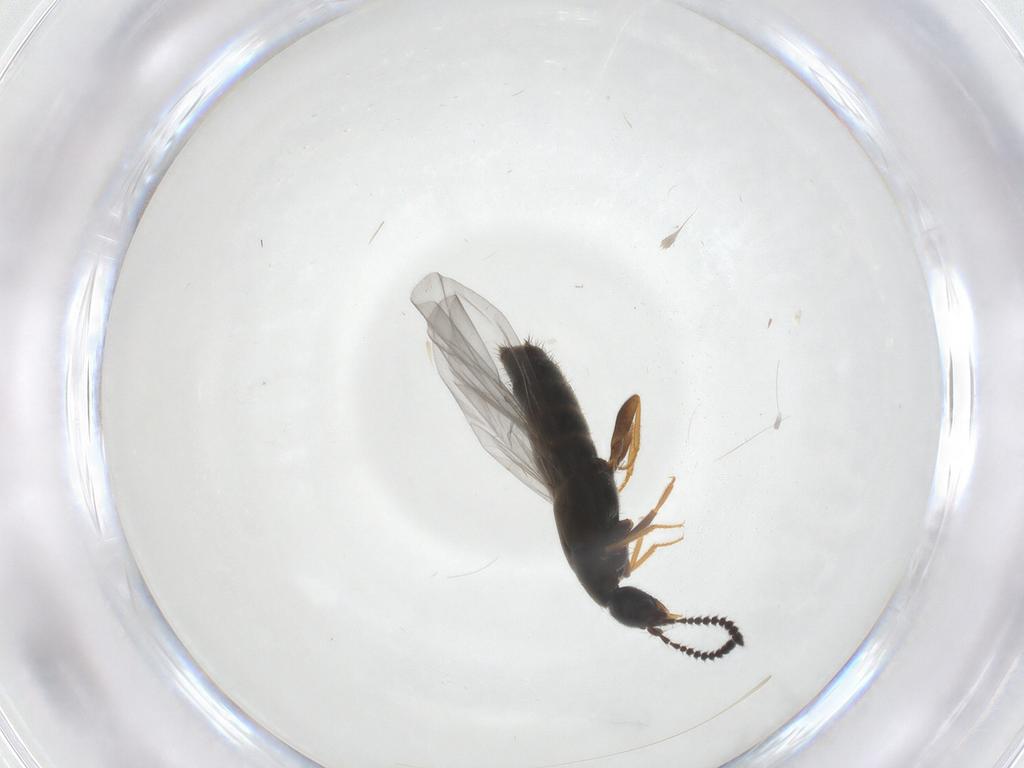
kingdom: Animalia
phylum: Arthropoda
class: Insecta
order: Coleoptera
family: Staphylinidae
